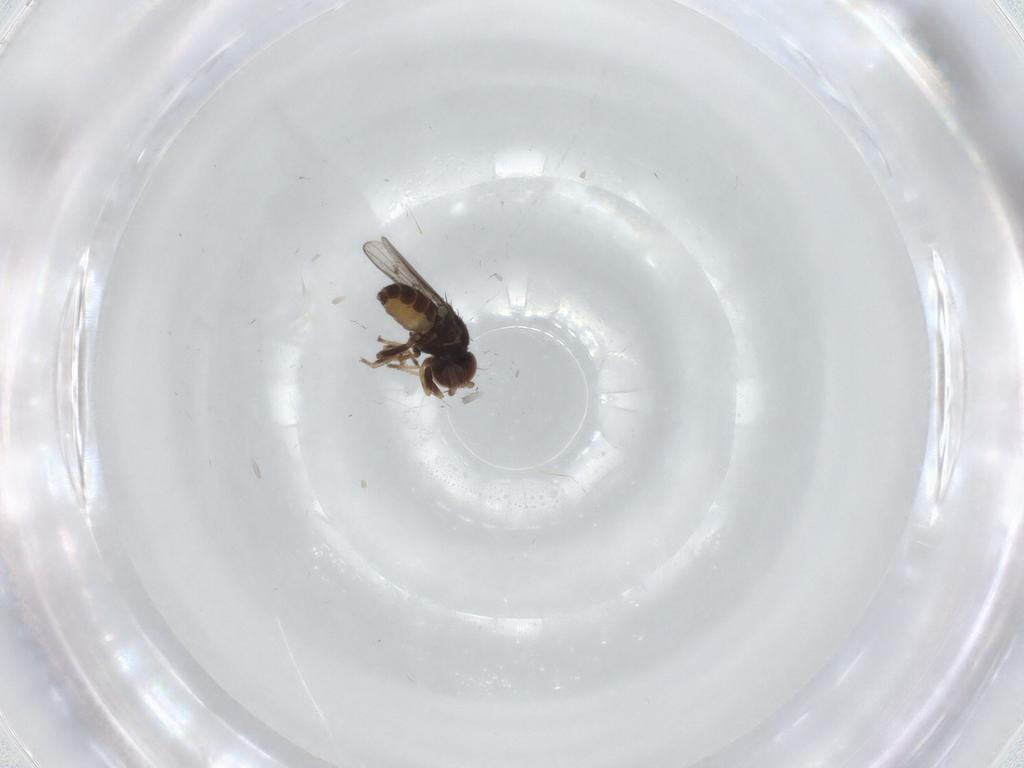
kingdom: Animalia
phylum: Arthropoda
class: Insecta
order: Diptera
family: Chloropidae
